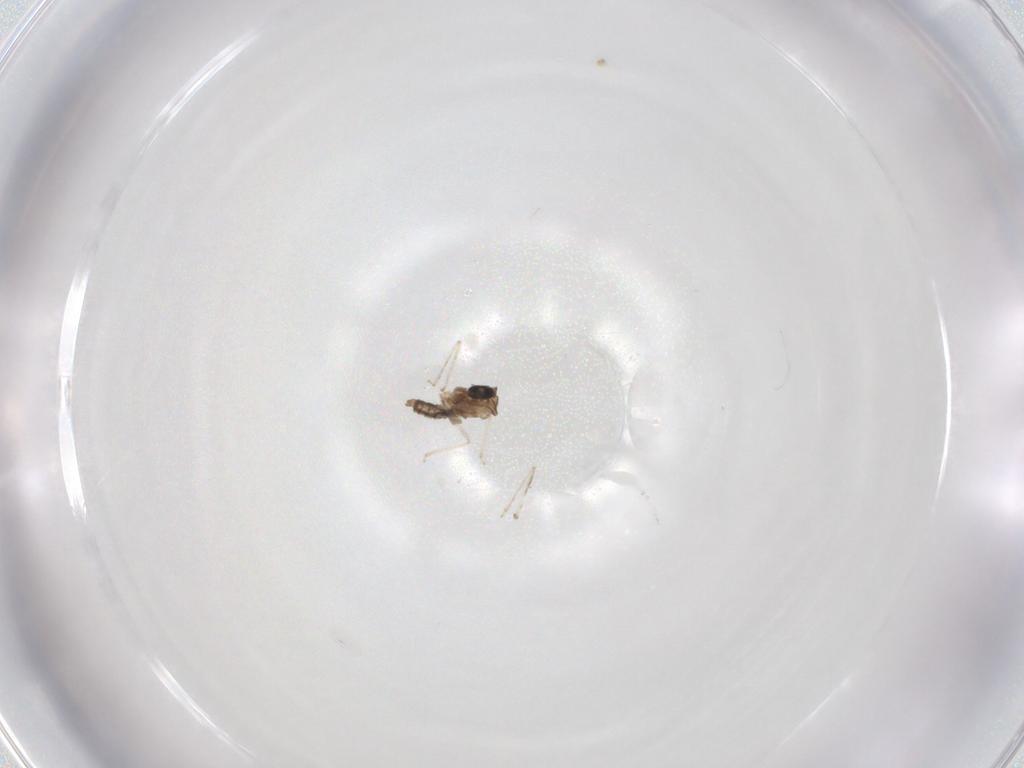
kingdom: Animalia
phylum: Arthropoda
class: Insecta
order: Diptera
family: Cecidomyiidae
